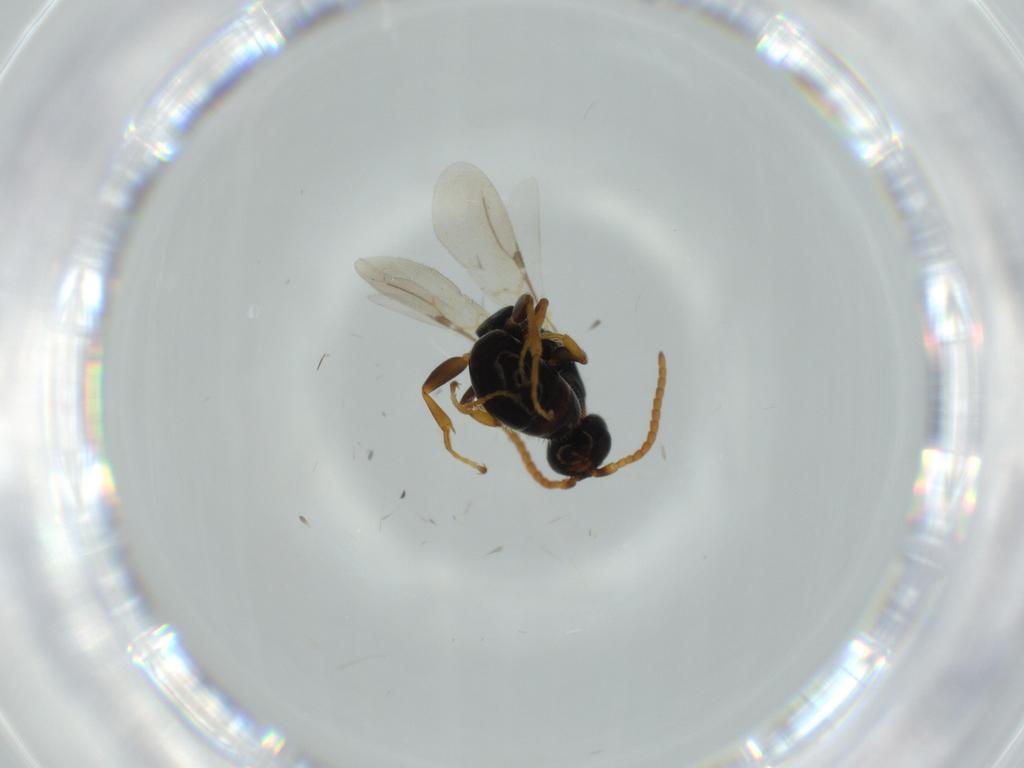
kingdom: Animalia
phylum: Arthropoda
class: Insecta
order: Hymenoptera
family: Bethylidae
